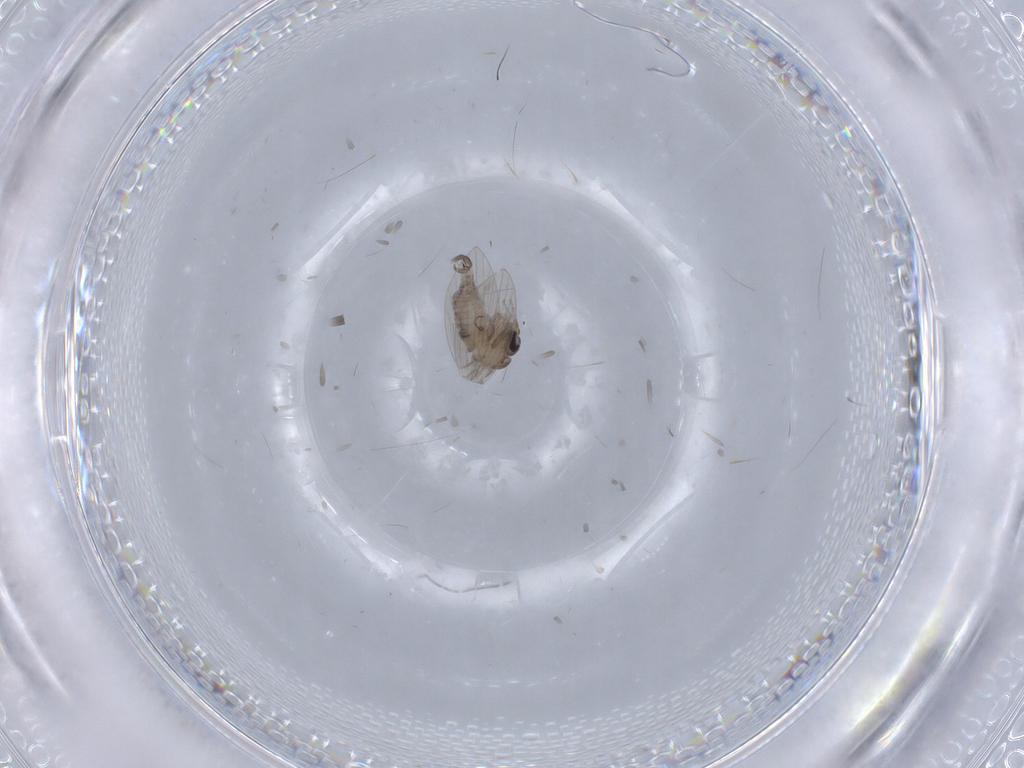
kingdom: Animalia
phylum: Arthropoda
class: Insecta
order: Diptera
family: Psychodidae
